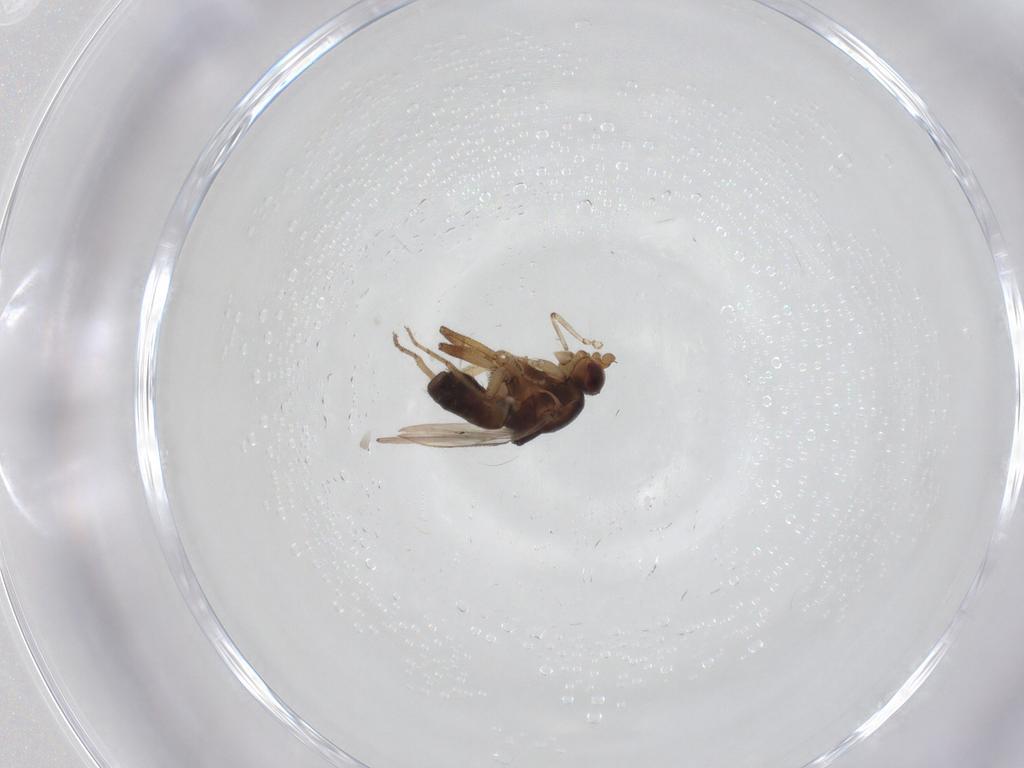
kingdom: Animalia
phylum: Arthropoda
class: Insecta
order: Diptera
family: Sphaeroceridae
